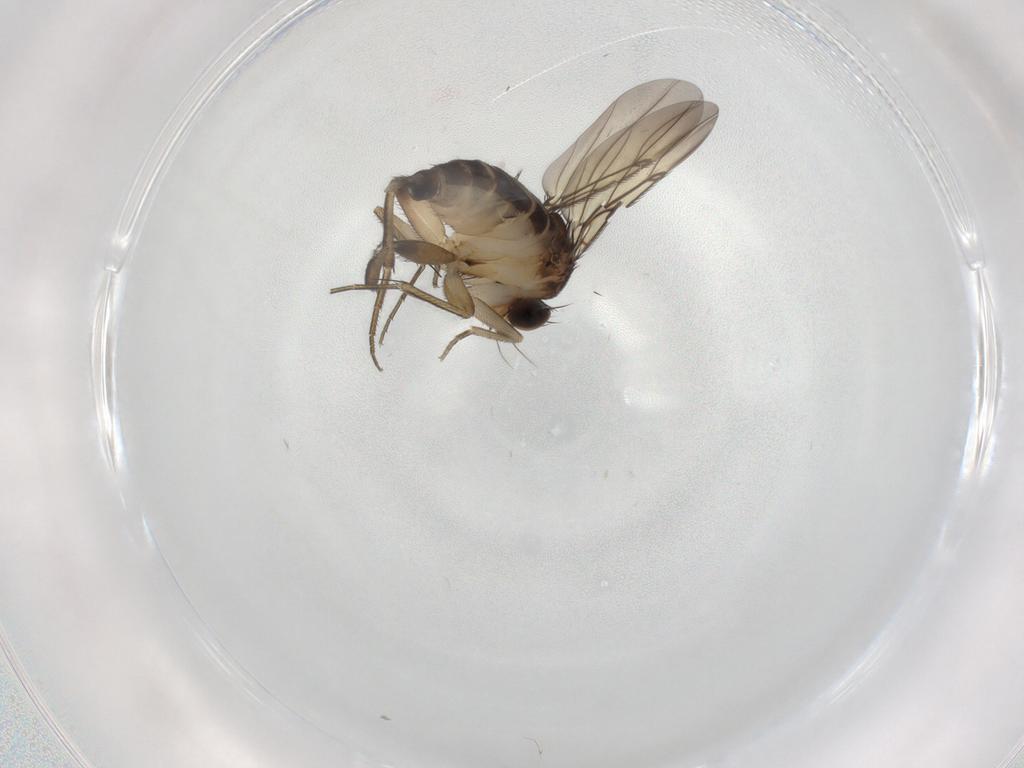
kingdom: Animalia
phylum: Arthropoda
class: Insecta
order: Diptera
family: Phoridae
